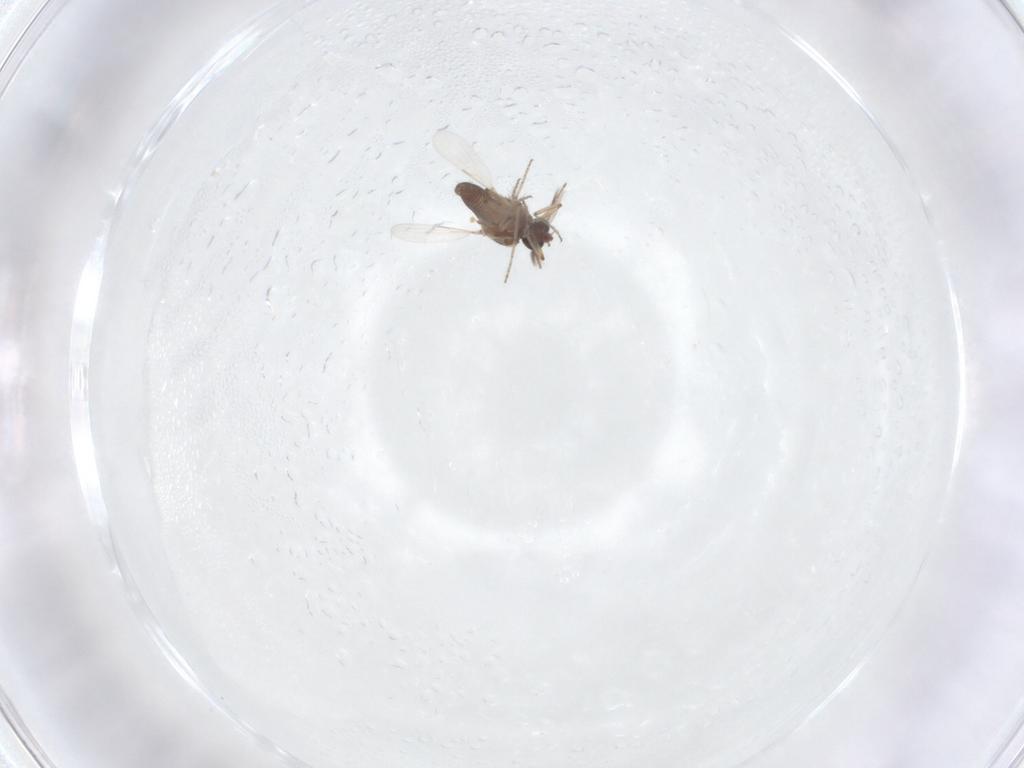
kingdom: Animalia
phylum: Arthropoda
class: Insecta
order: Diptera
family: Ceratopogonidae
